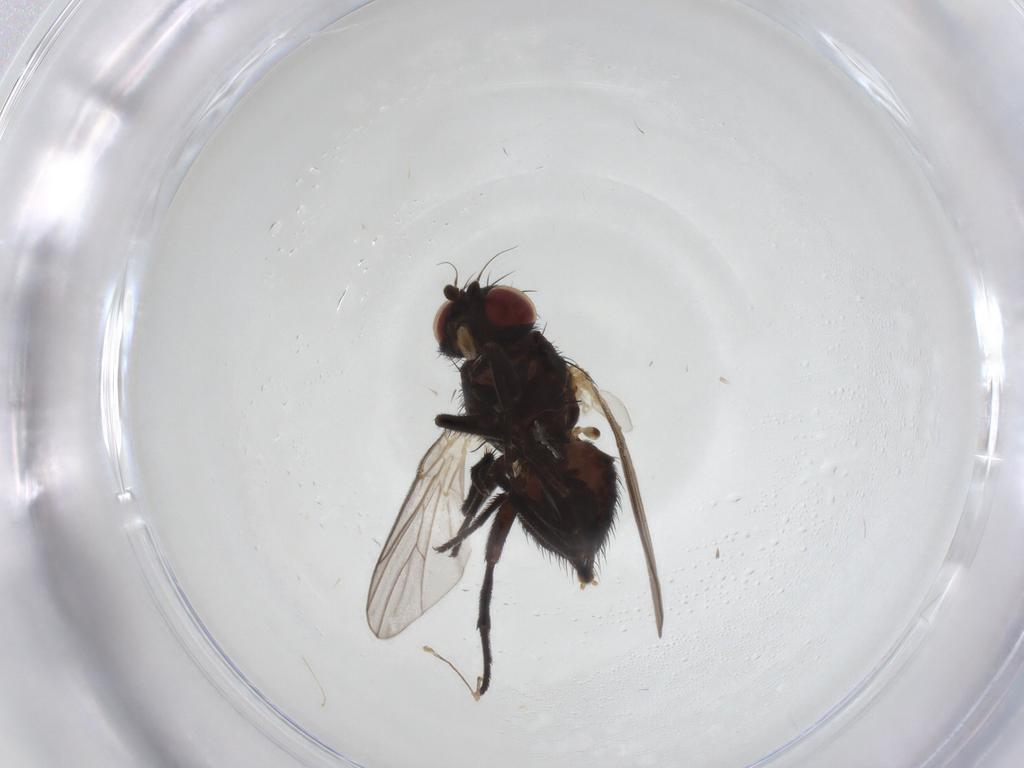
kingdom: Animalia
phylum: Arthropoda
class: Insecta
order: Diptera
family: Agromyzidae
